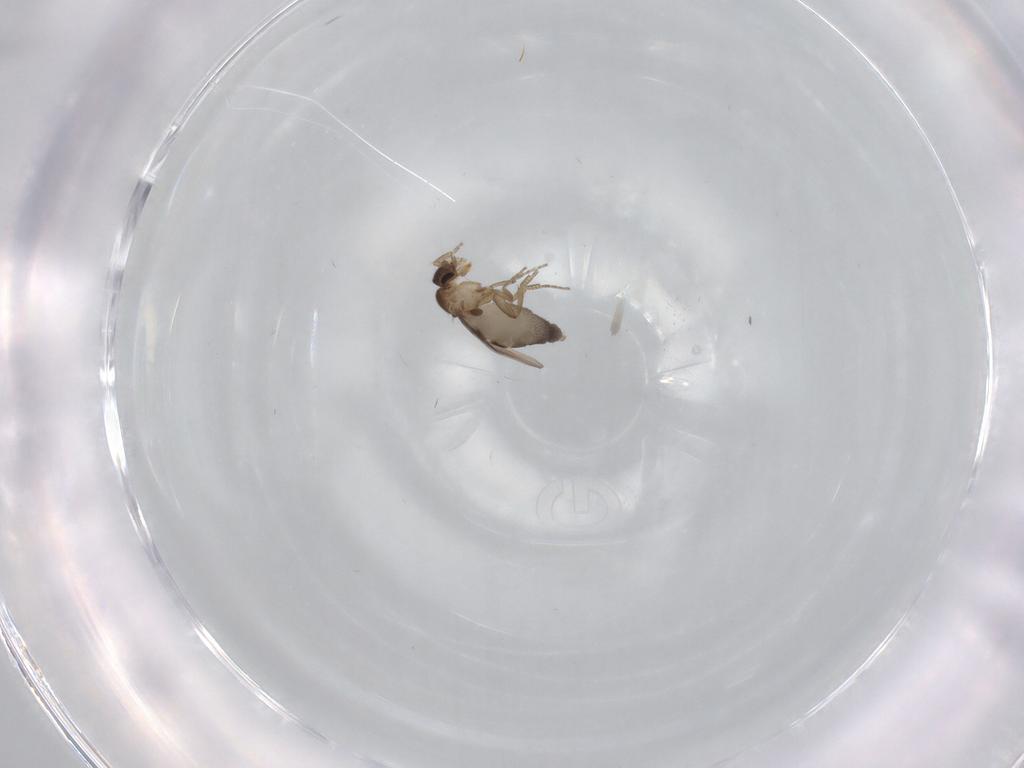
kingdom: Animalia
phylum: Arthropoda
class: Insecta
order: Diptera
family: Phoridae
